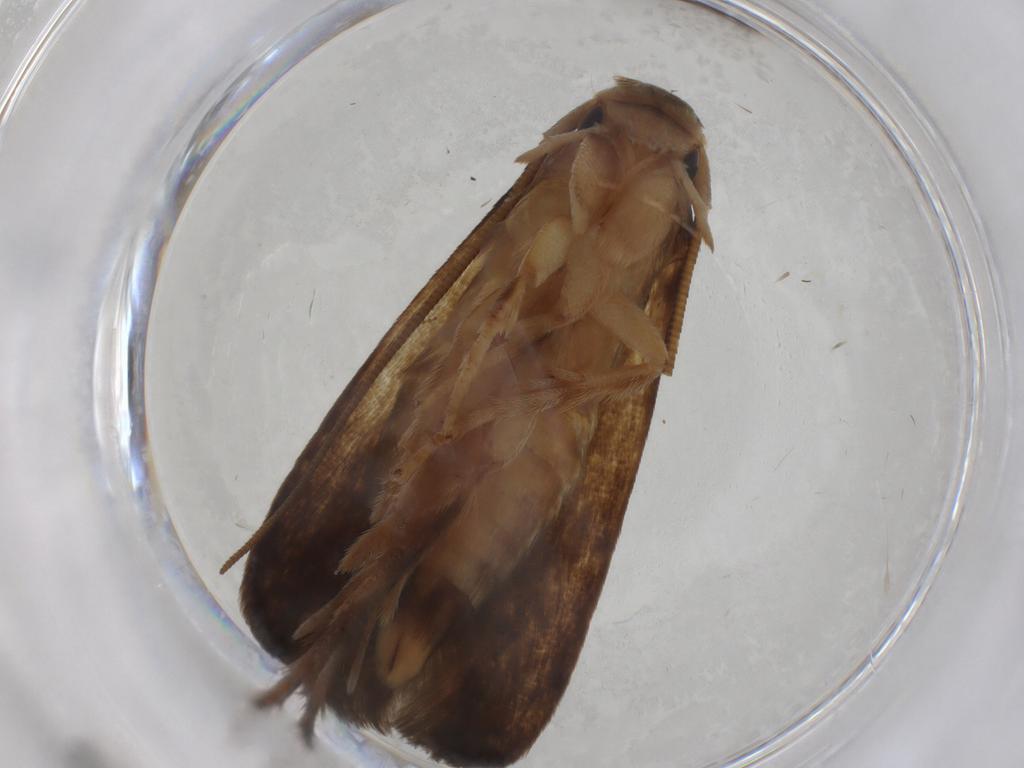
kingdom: Animalia
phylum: Arthropoda
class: Insecta
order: Lepidoptera
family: Tineidae
